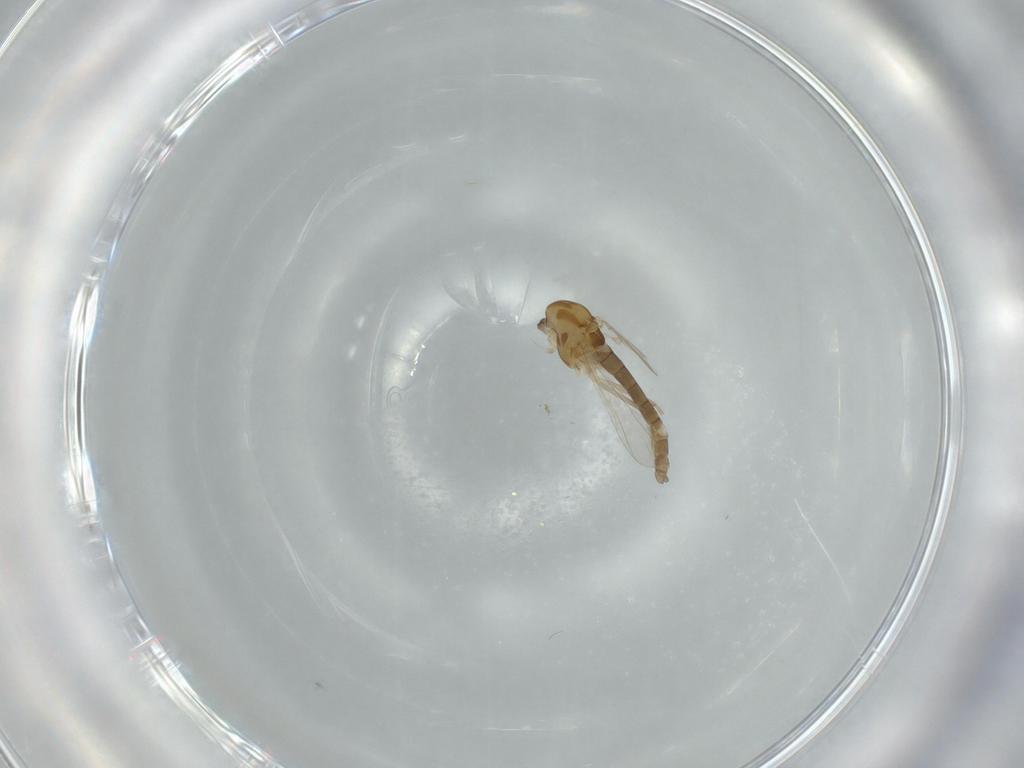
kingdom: Animalia
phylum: Arthropoda
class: Insecta
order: Diptera
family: Chironomidae
